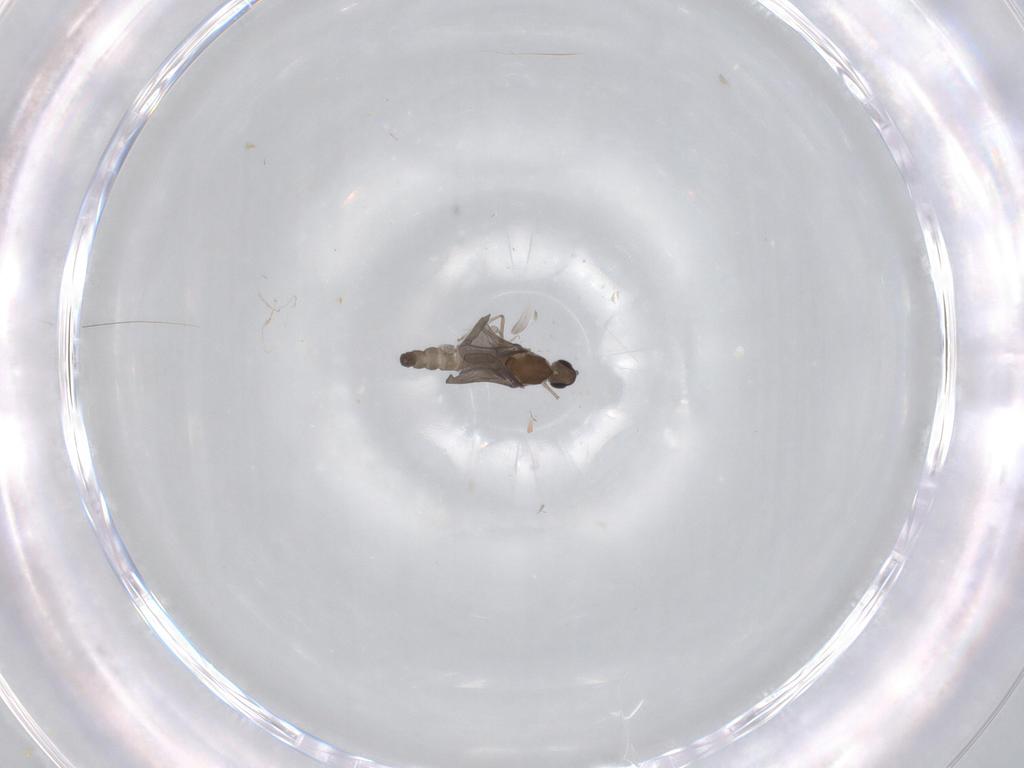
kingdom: Animalia
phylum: Arthropoda
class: Insecta
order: Diptera
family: Cecidomyiidae
